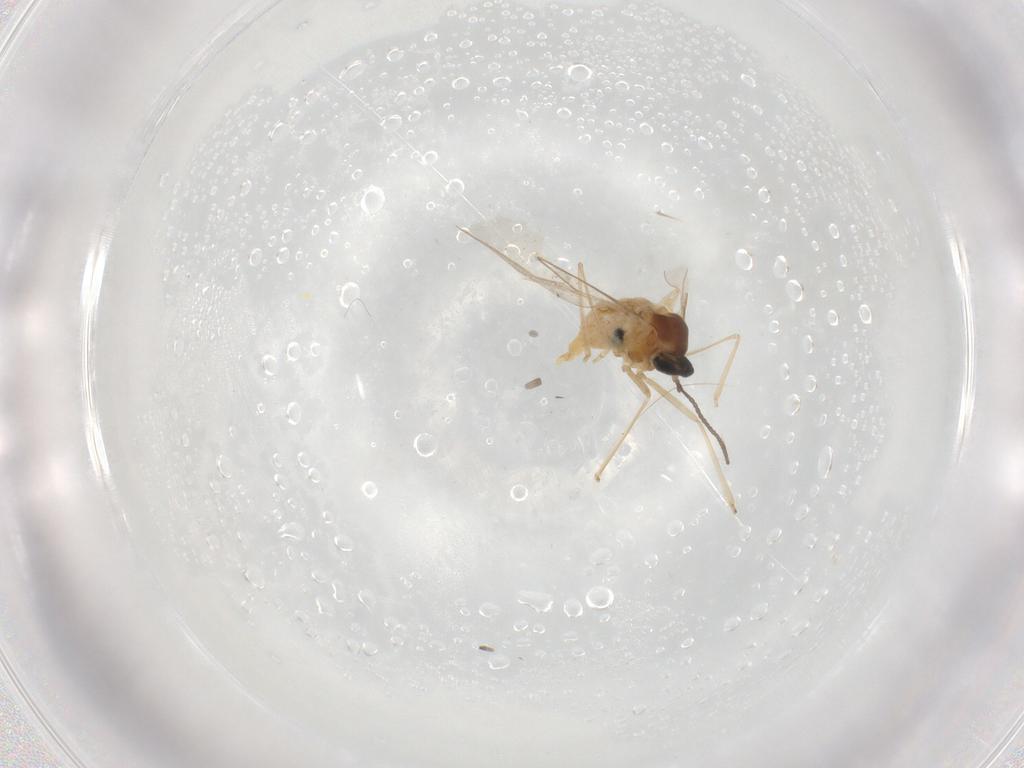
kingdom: Animalia
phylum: Arthropoda
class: Insecta
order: Diptera
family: Cecidomyiidae
